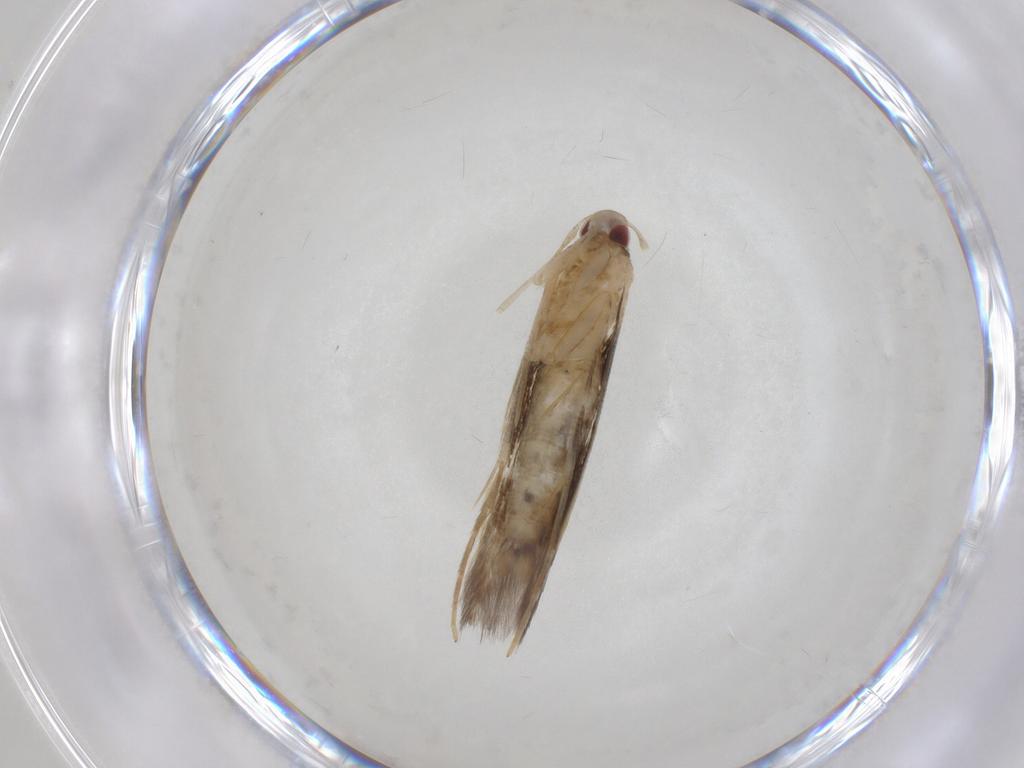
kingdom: Animalia
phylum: Arthropoda
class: Insecta
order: Lepidoptera
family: Cosmopterigidae
